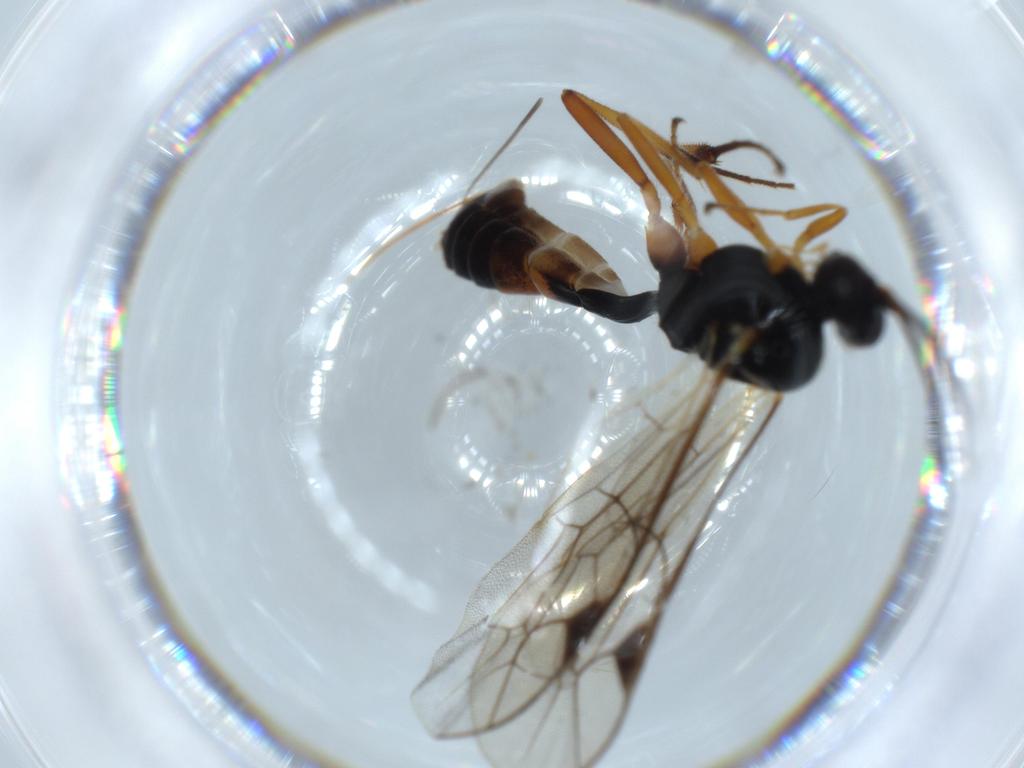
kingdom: Animalia
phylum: Arthropoda
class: Insecta
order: Hymenoptera
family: Ichneumonidae
